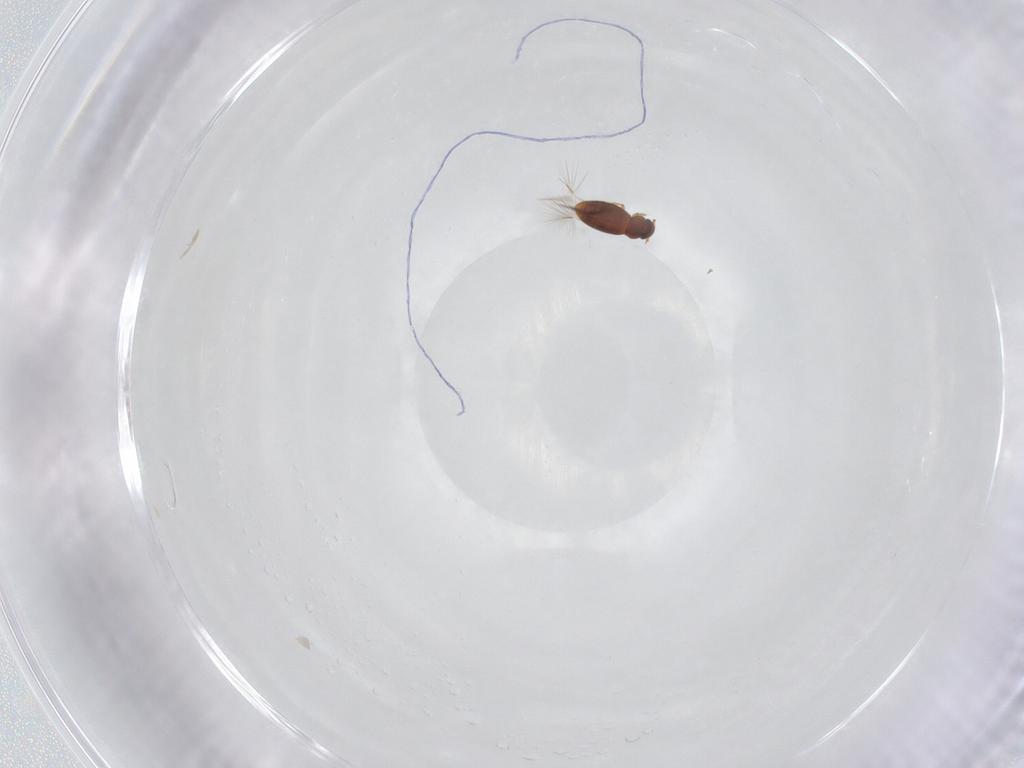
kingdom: Animalia
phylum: Arthropoda
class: Insecta
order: Coleoptera
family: Ptiliidae
